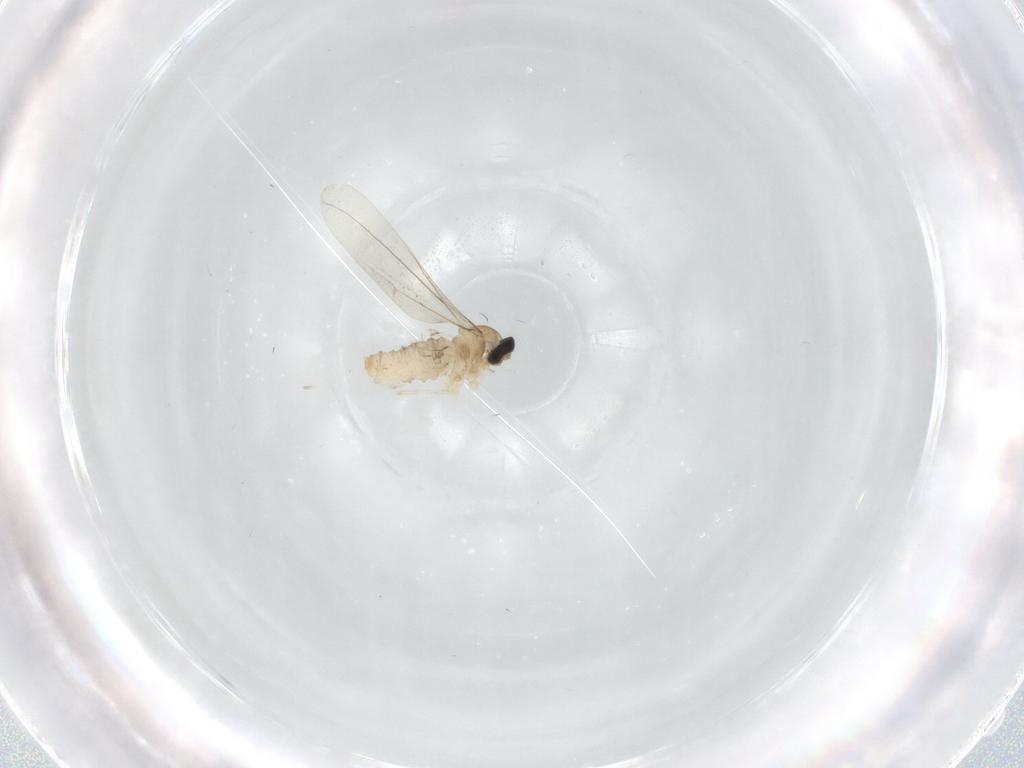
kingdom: Animalia
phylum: Arthropoda
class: Insecta
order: Diptera
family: Cecidomyiidae
